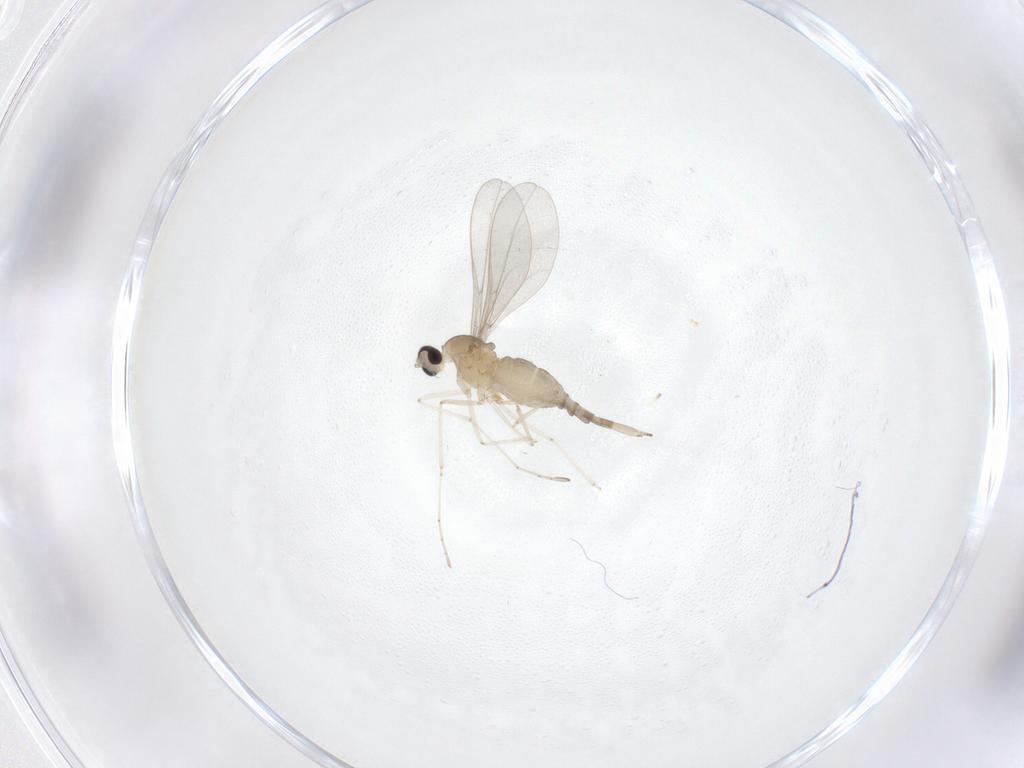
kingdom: Animalia
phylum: Arthropoda
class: Insecta
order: Diptera
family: Cecidomyiidae
